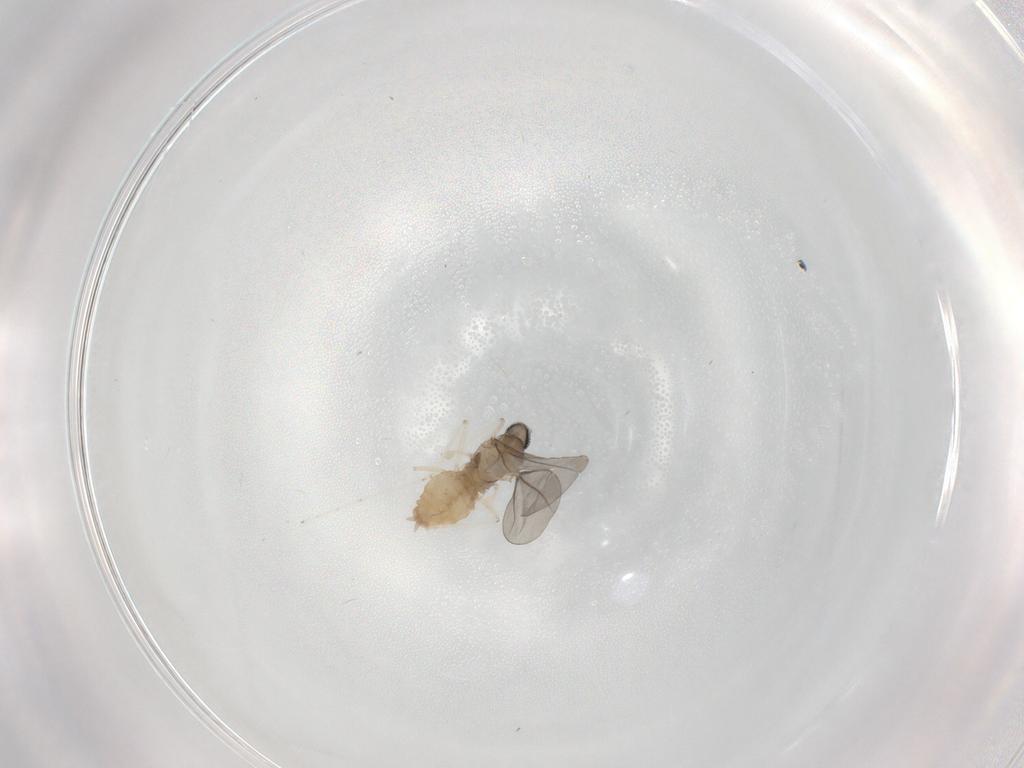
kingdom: Animalia
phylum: Arthropoda
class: Insecta
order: Diptera
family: Cecidomyiidae
